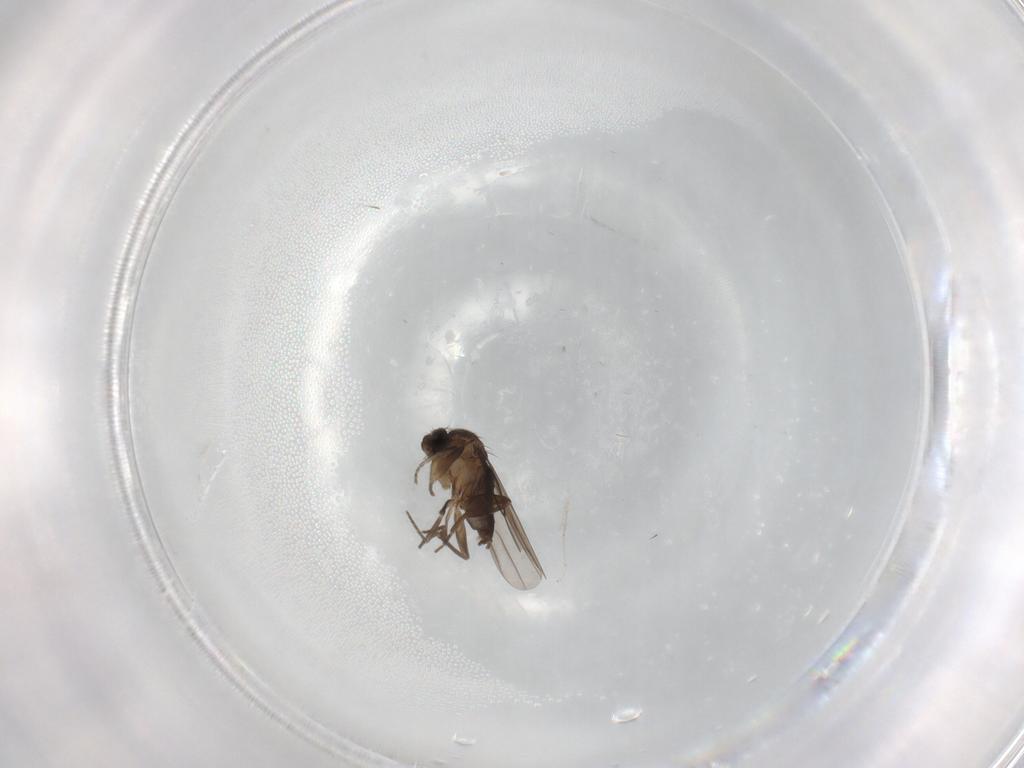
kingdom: Animalia
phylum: Arthropoda
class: Insecta
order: Diptera
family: Cecidomyiidae
